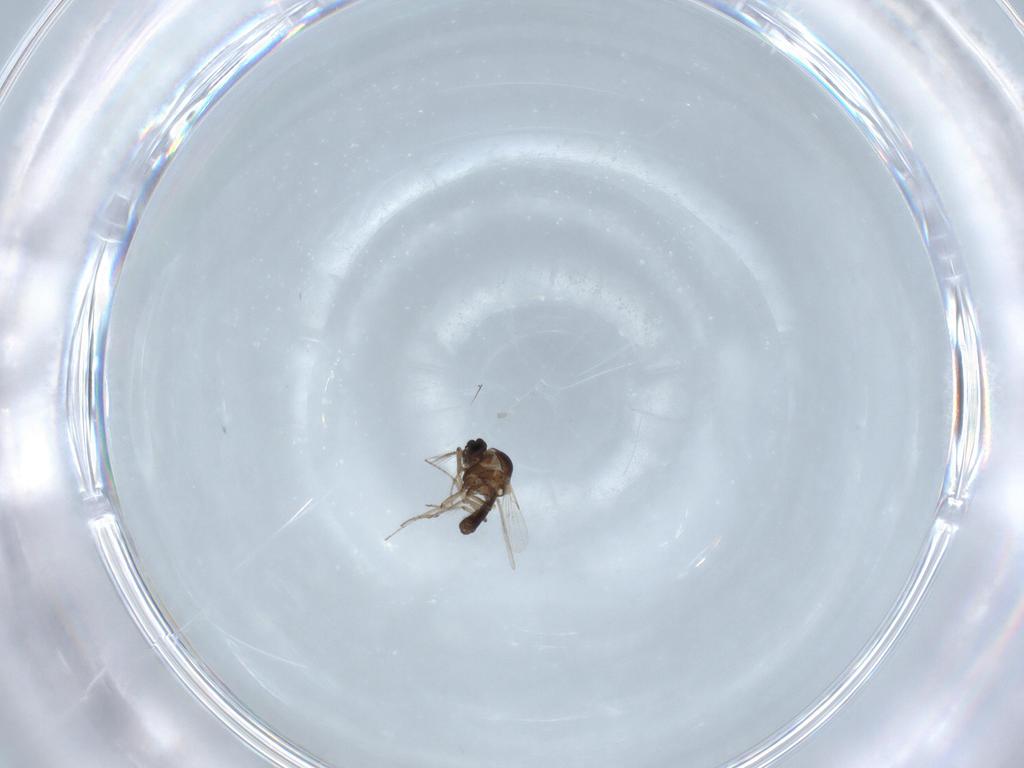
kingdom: Animalia
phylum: Arthropoda
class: Insecta
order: Diptera
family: Ceratopogonidae
